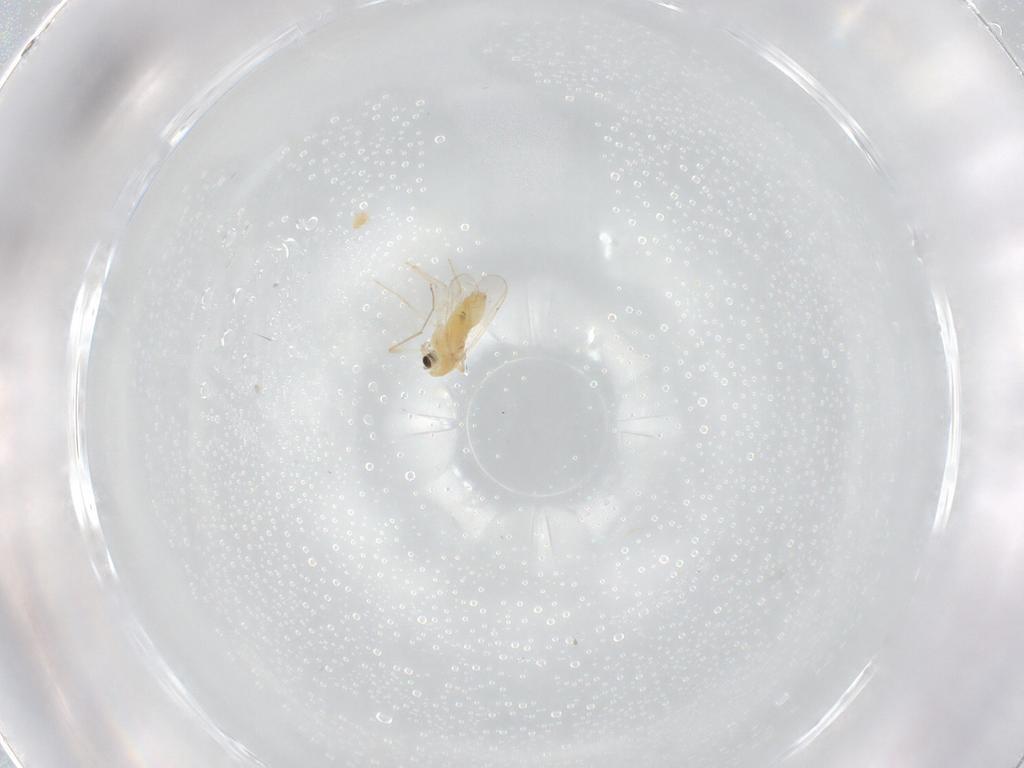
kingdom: Animalia
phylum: Arthropoda
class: Insecta
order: Diptera
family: Chironomidae
